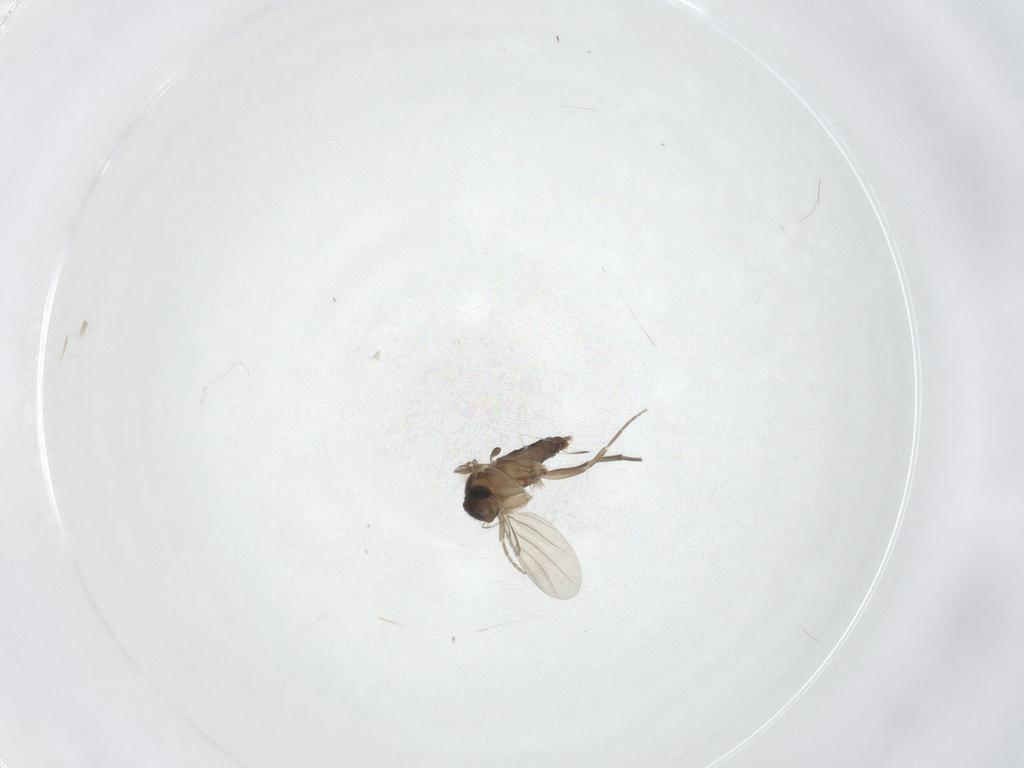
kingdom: Animalia
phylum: Arthropoda
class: Insecta
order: Diptera
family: Phoridae
